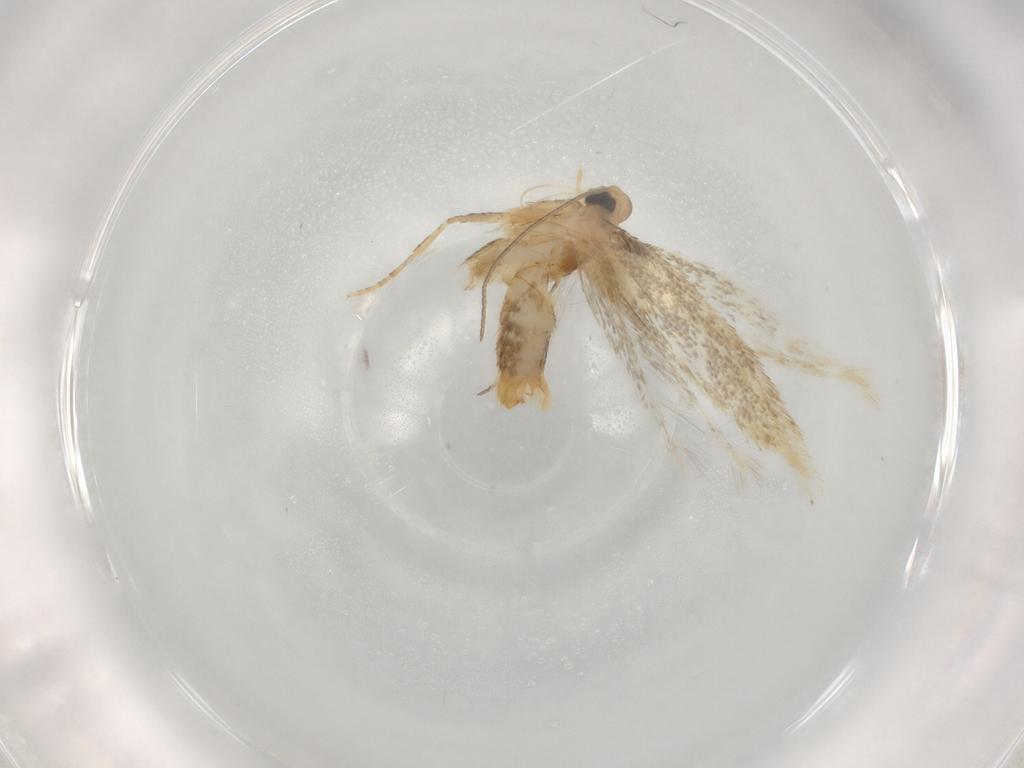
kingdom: Animalia
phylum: Arthropoda
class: Insecta
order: Lepidoptera
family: Tischeriidae
